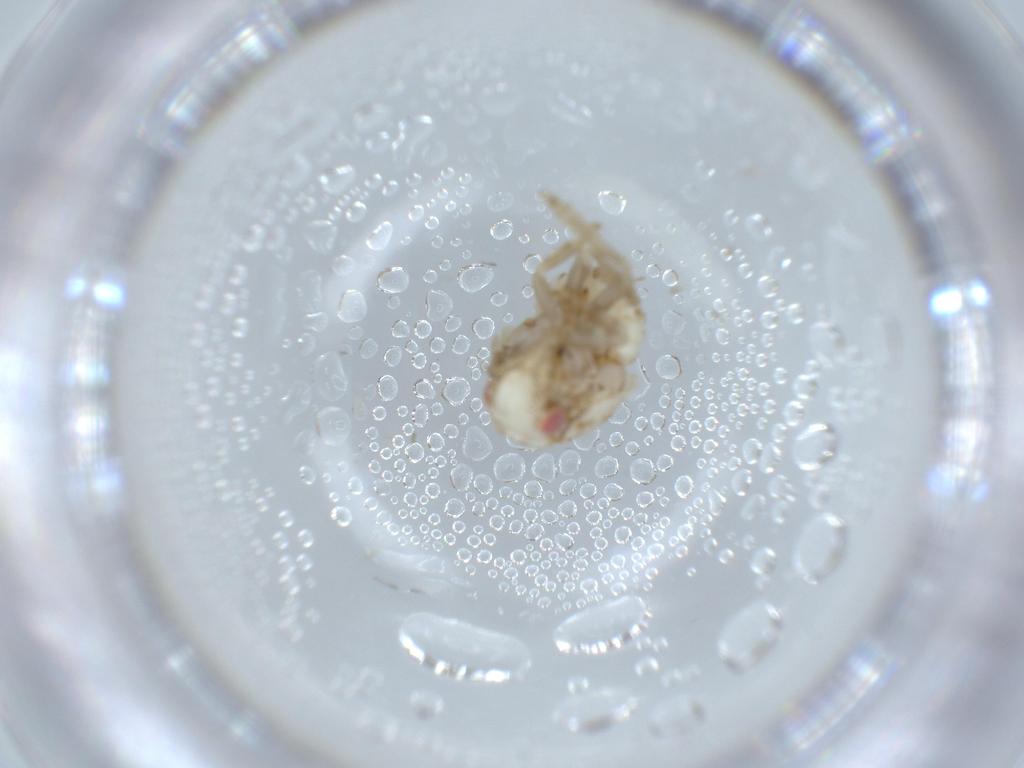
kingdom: Animalia
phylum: Arthropoda
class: Insecta
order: Hemiptera
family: Acanaloniidae
